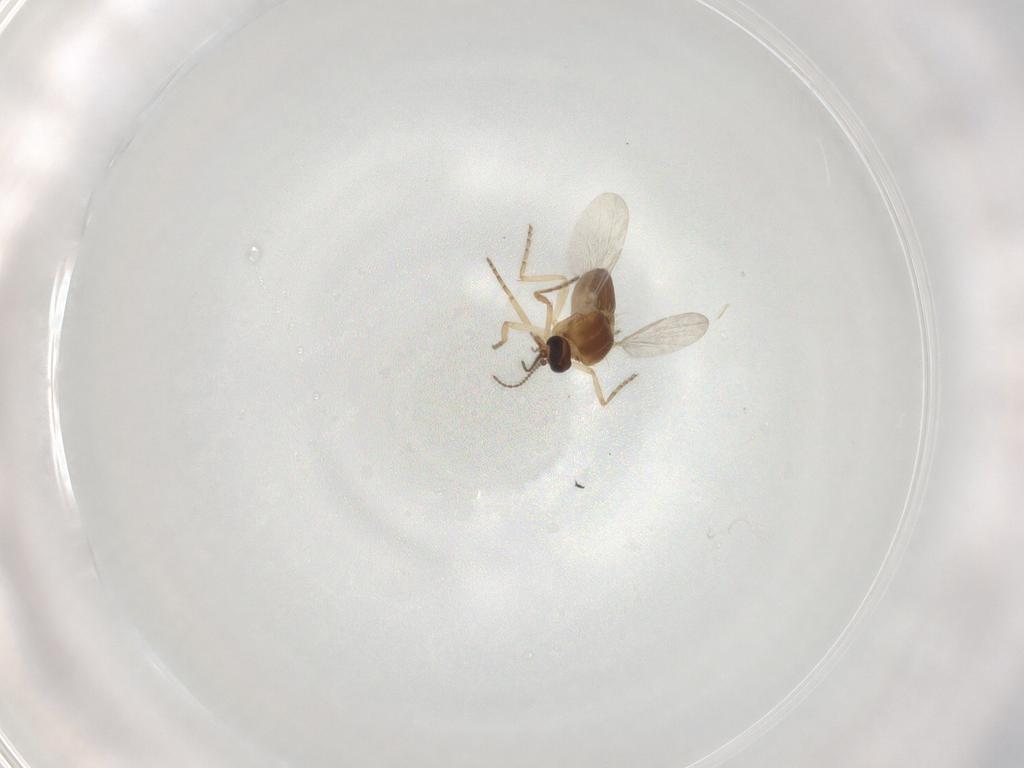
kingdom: Animalia
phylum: Arthropoda
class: Insecta
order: Diptera
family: Ceratopogonidae
